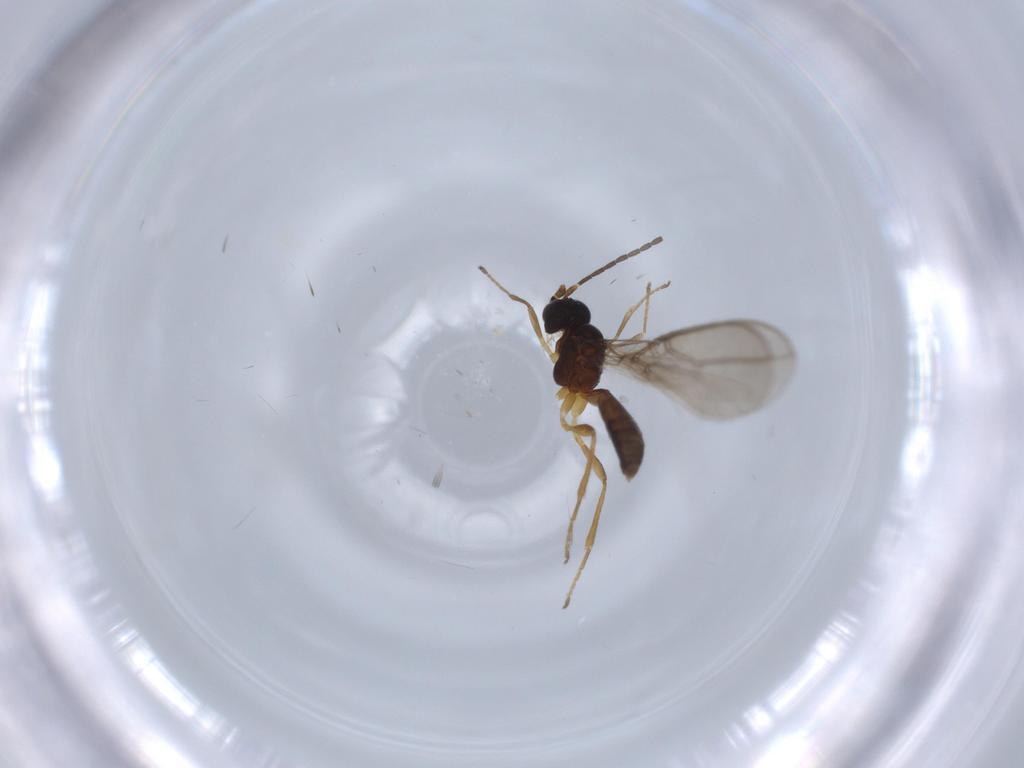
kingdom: Animalia
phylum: Arthropoda
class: Insecta
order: Hymenoptera
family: Braconidae
